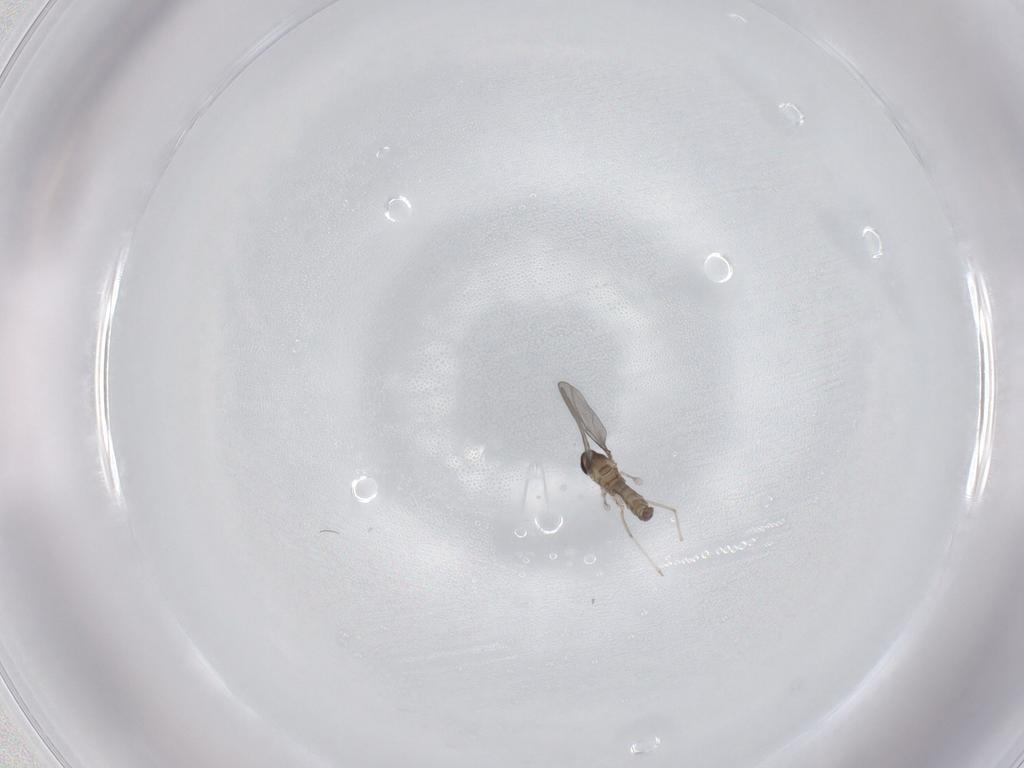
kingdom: Animalia
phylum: Arthropoda
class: Insecta
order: Diptera
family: Cecidomyiidae
